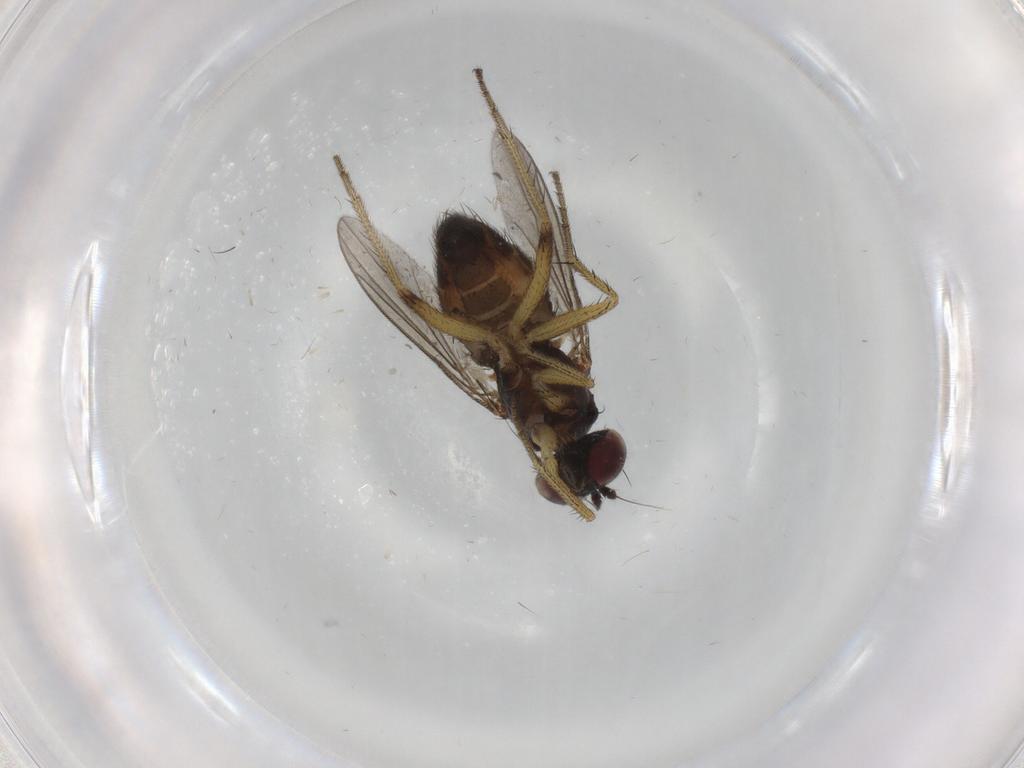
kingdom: Animalia
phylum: Arthropoda
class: Insecta
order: Diptera
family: Dolichopodidae
